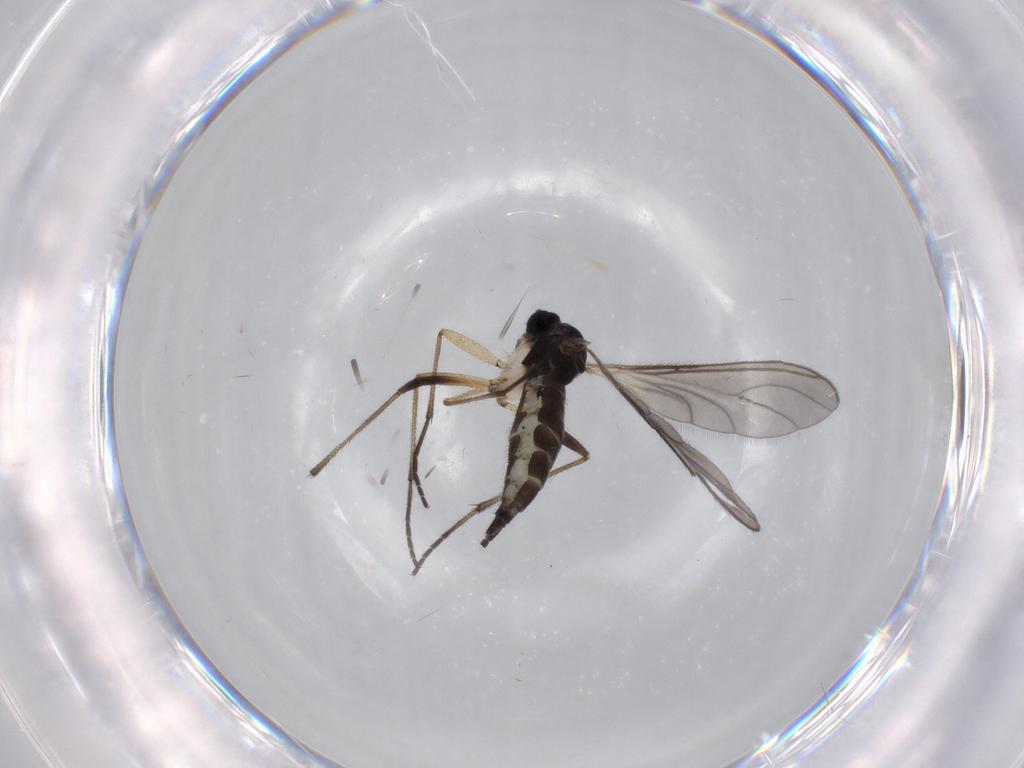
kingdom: Animalia
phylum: Arthropoda
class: Insecta
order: Diptera
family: Sciaridae
